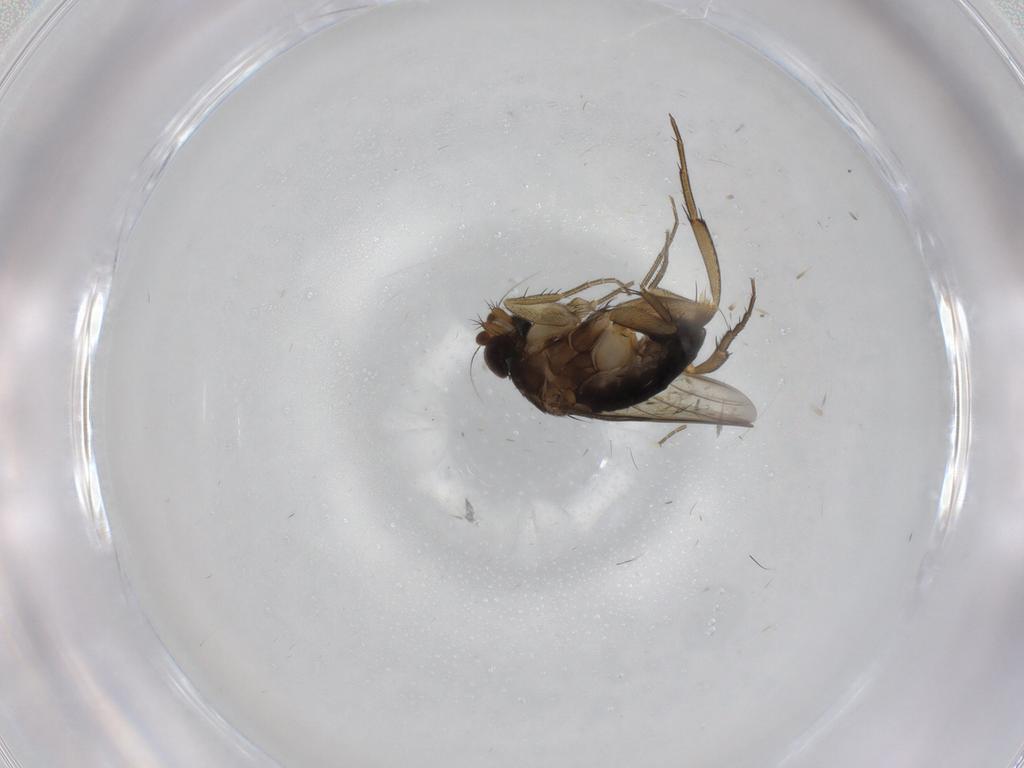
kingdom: Animalia
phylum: Arthropoda
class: Insecta
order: Diptera
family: Phoridae
